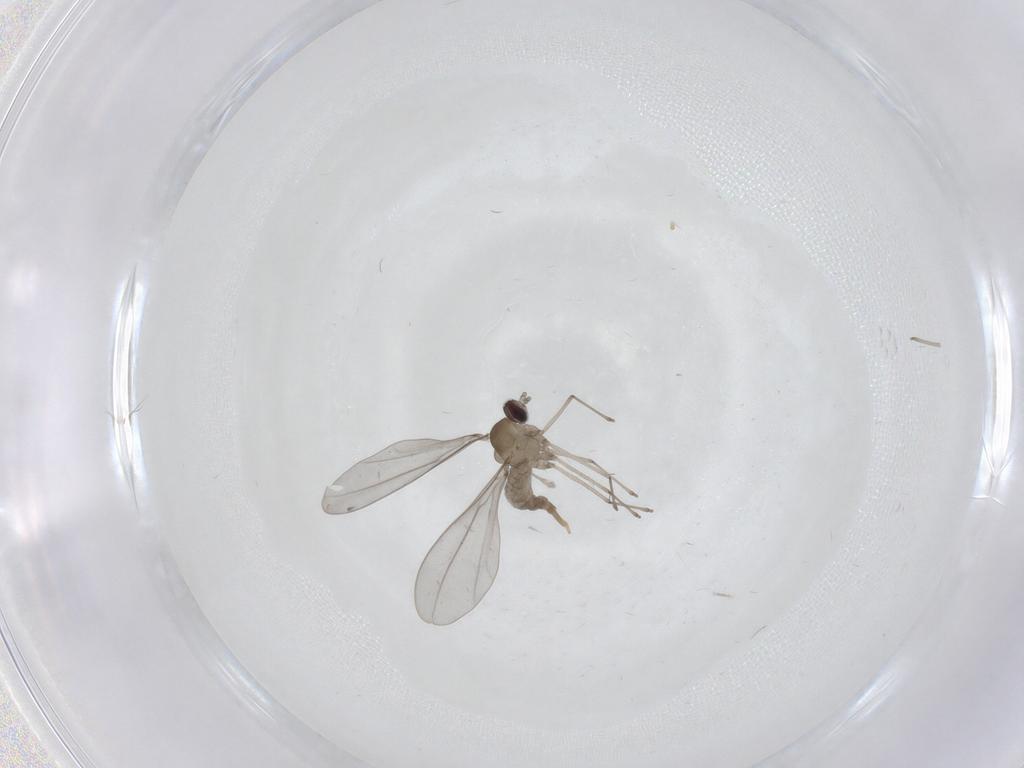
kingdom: Animalia
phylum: Arthropoda
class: Insecta
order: Diptera
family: Cecidomyiidae
